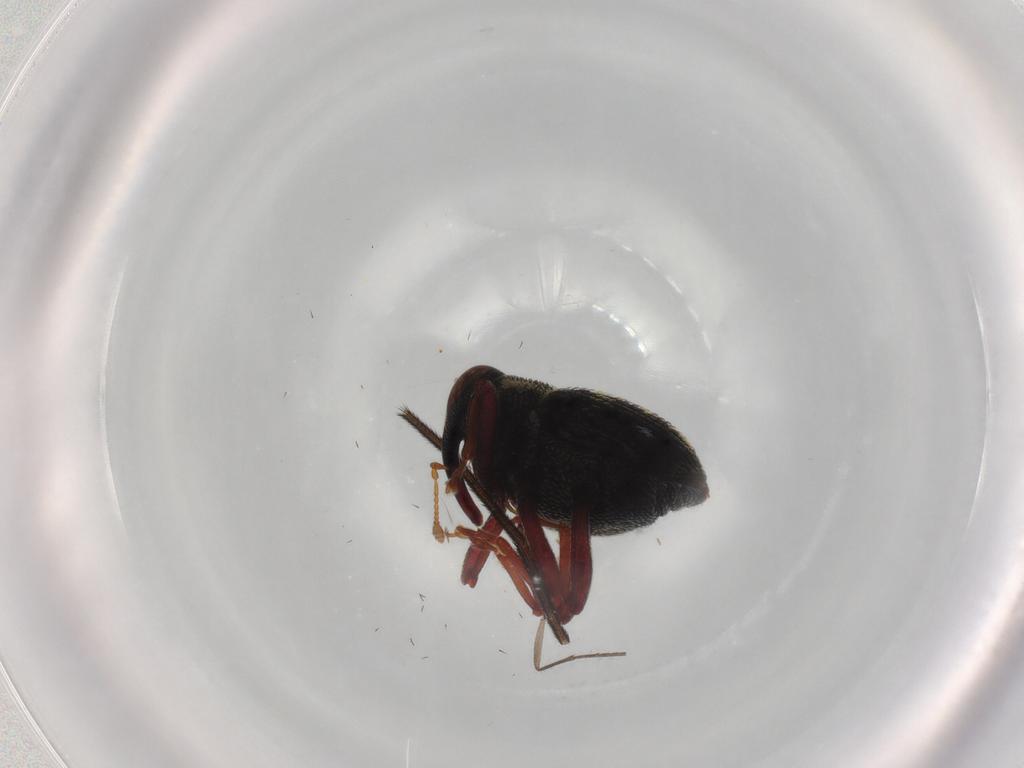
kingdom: Animalia
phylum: Arthropoda
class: Insecta
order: Coleoptera
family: Curculionidae
